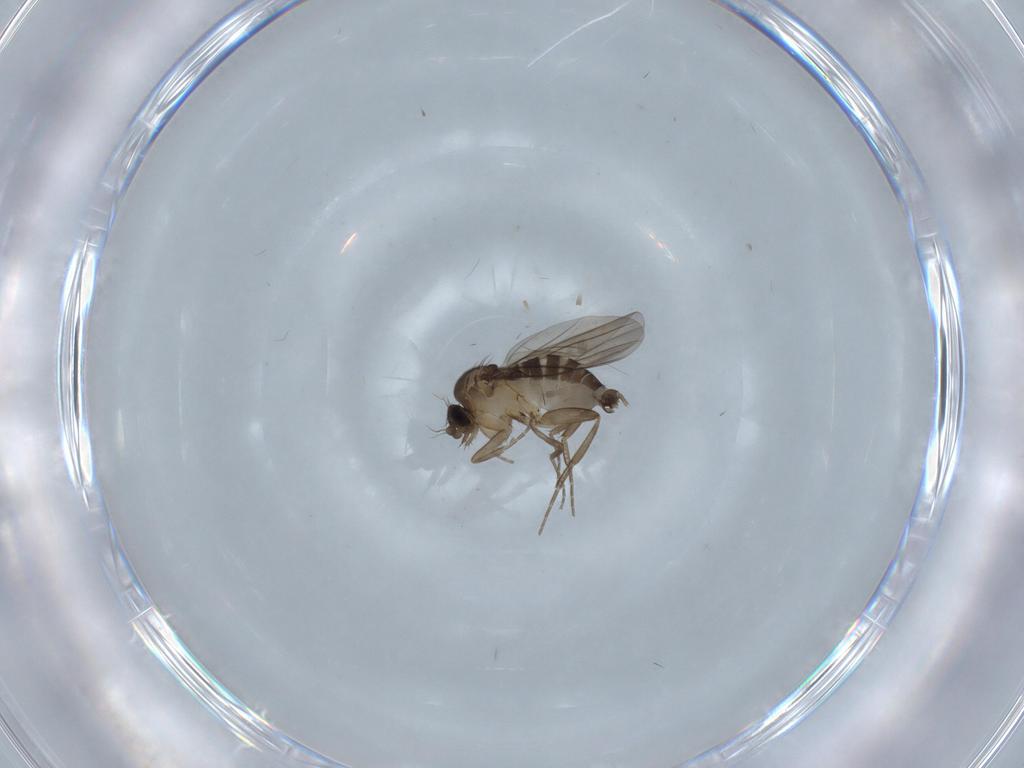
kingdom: Animalia
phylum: Arthropoda
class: Insecta
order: Diptera
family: Phoridae
